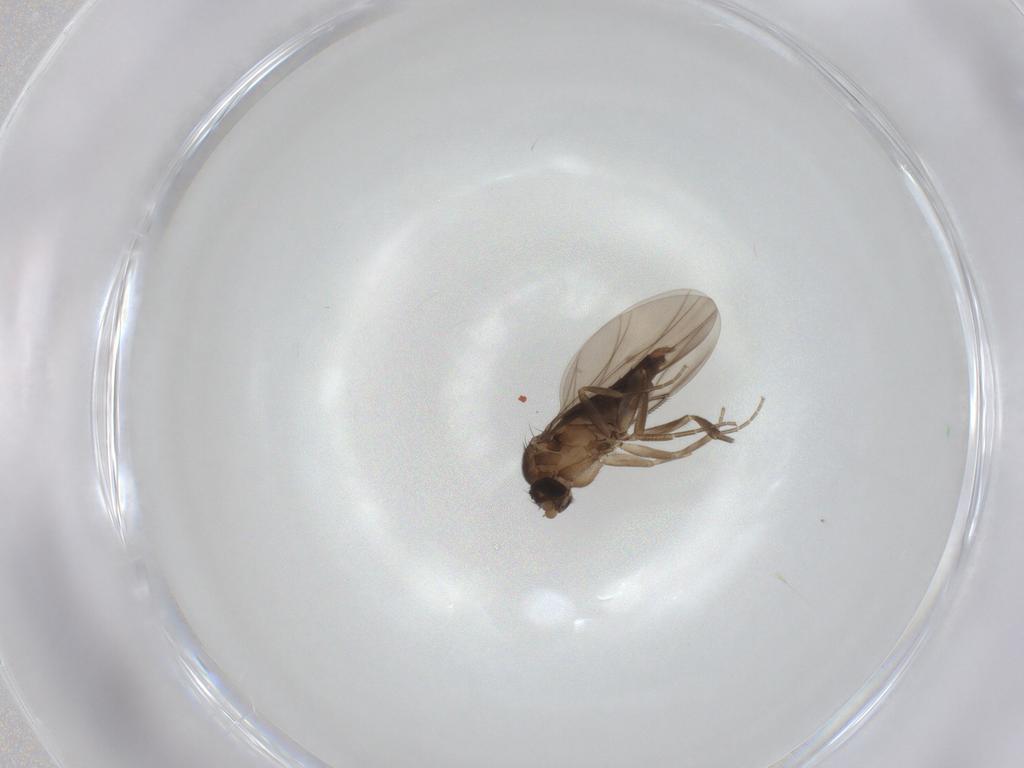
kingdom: Animalia
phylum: Arthropoda
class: Insecta
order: Diptera
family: Phoridae
